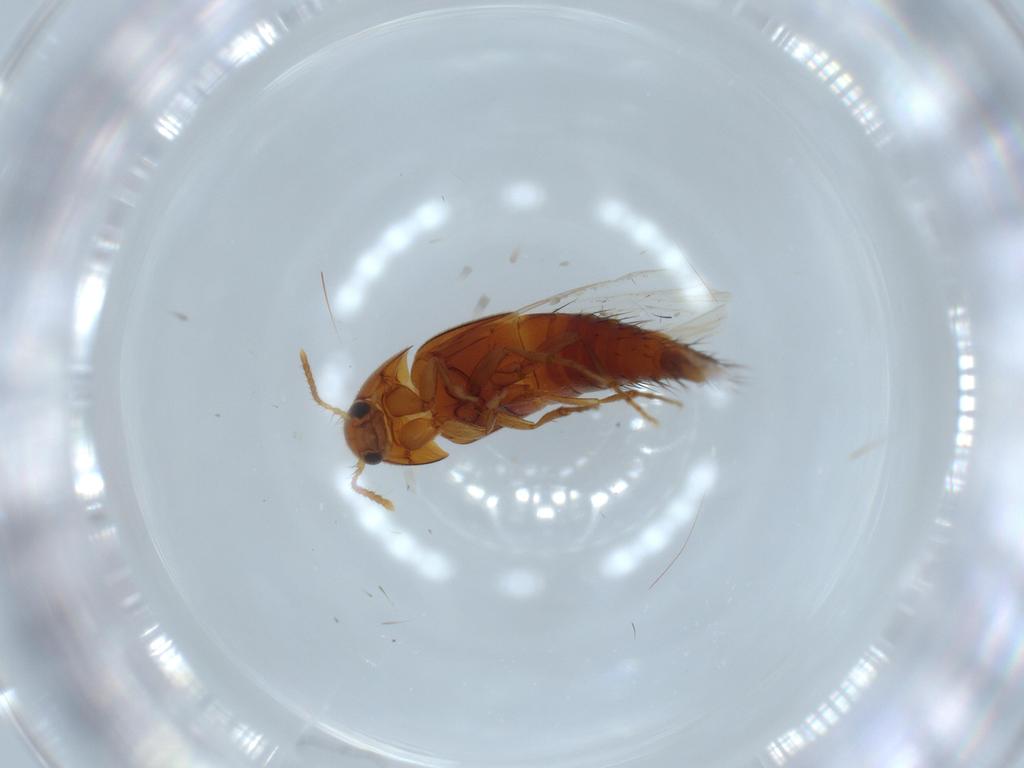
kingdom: Animalia
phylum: Arthropoda
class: Insecta
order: Coleoptera
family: Staphylinidae
